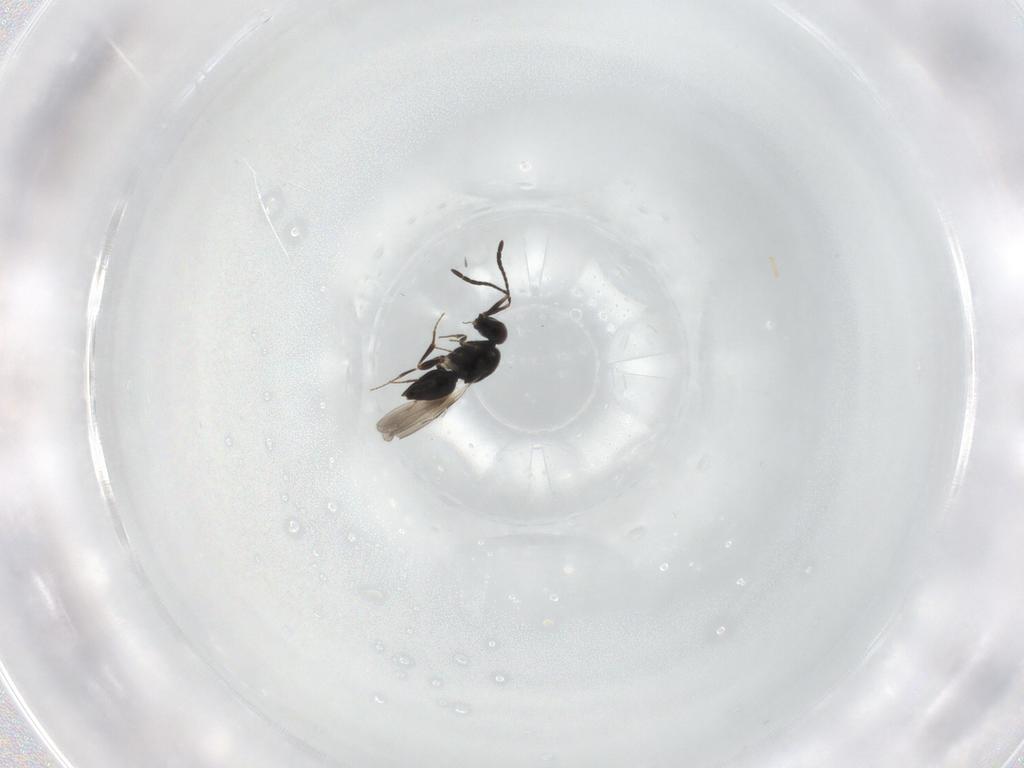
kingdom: Animalia
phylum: Arthropoda
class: Insecta
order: Hymenoptera
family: Ceraphronidae
